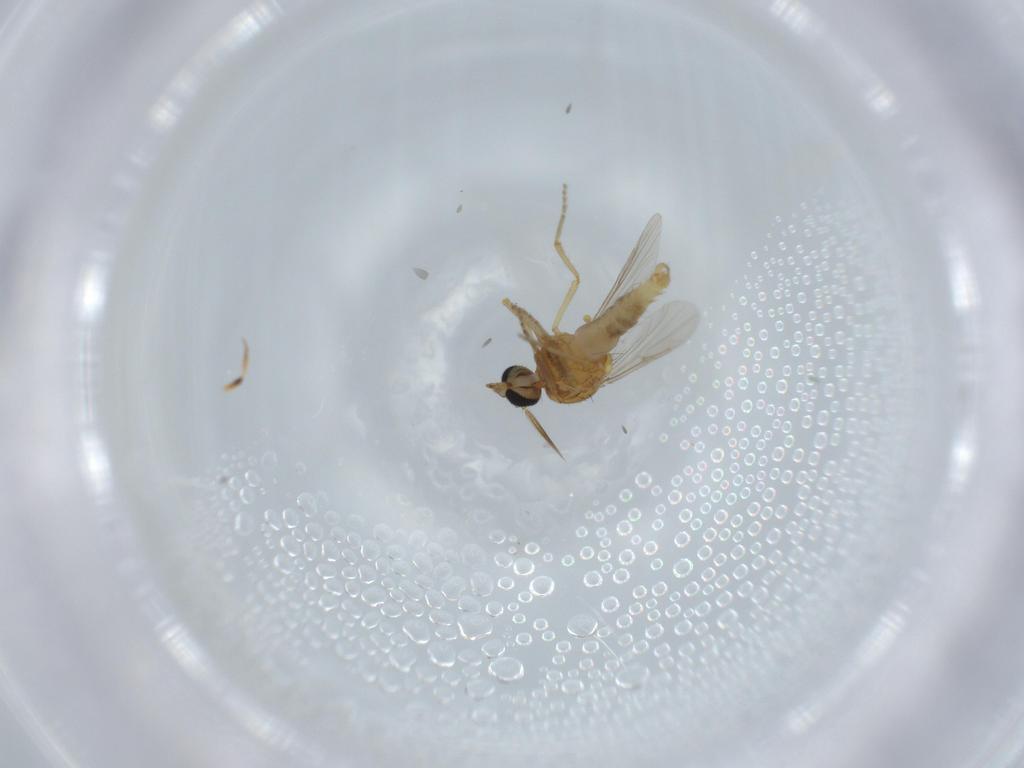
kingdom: Animalia
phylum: Arthropoda
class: Insecta
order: Diptera
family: Ceratopogonidae
